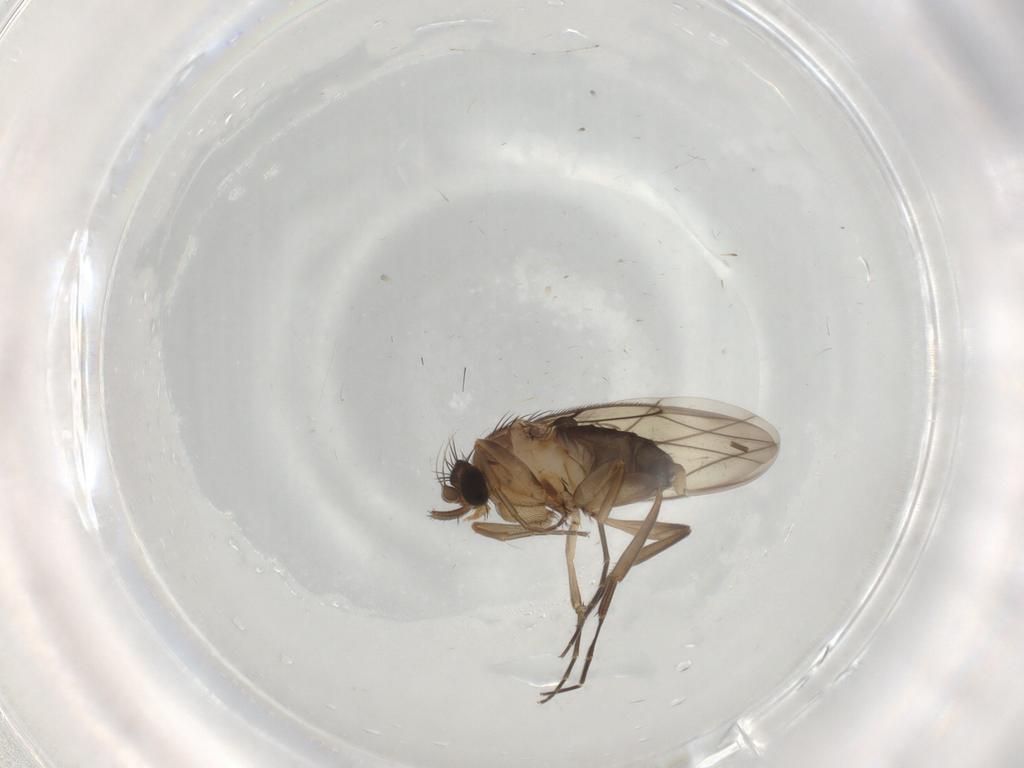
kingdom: Animalia
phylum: Arthropoda
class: Insecta
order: Diptera
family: Phoridae
